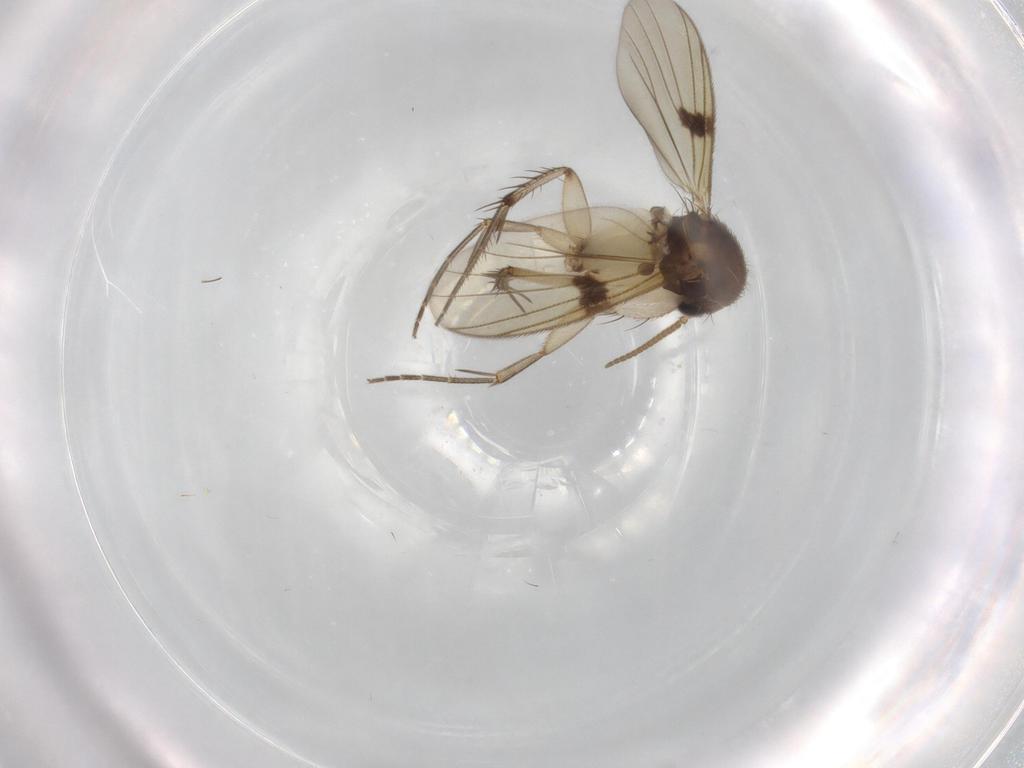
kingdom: Animalia
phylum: Arthropoda
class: Insecta
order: Diptera
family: Mycetophilidae
